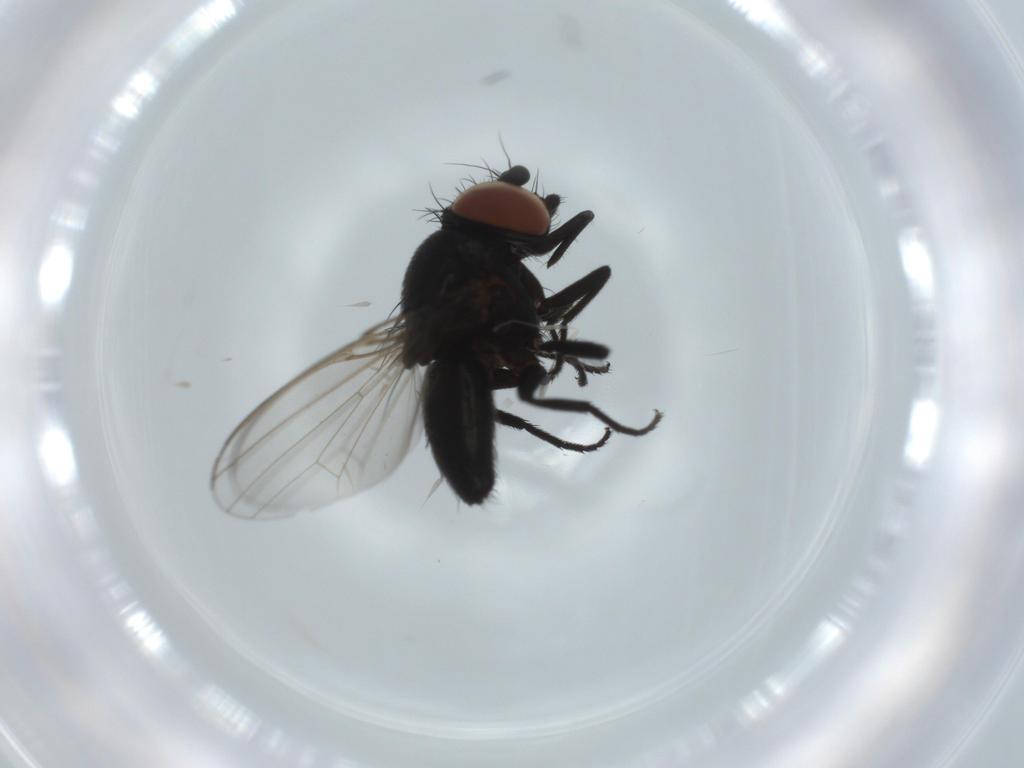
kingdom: Animalia
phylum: Arthropoda
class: Insecta
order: Diptera
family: Milichiidae
